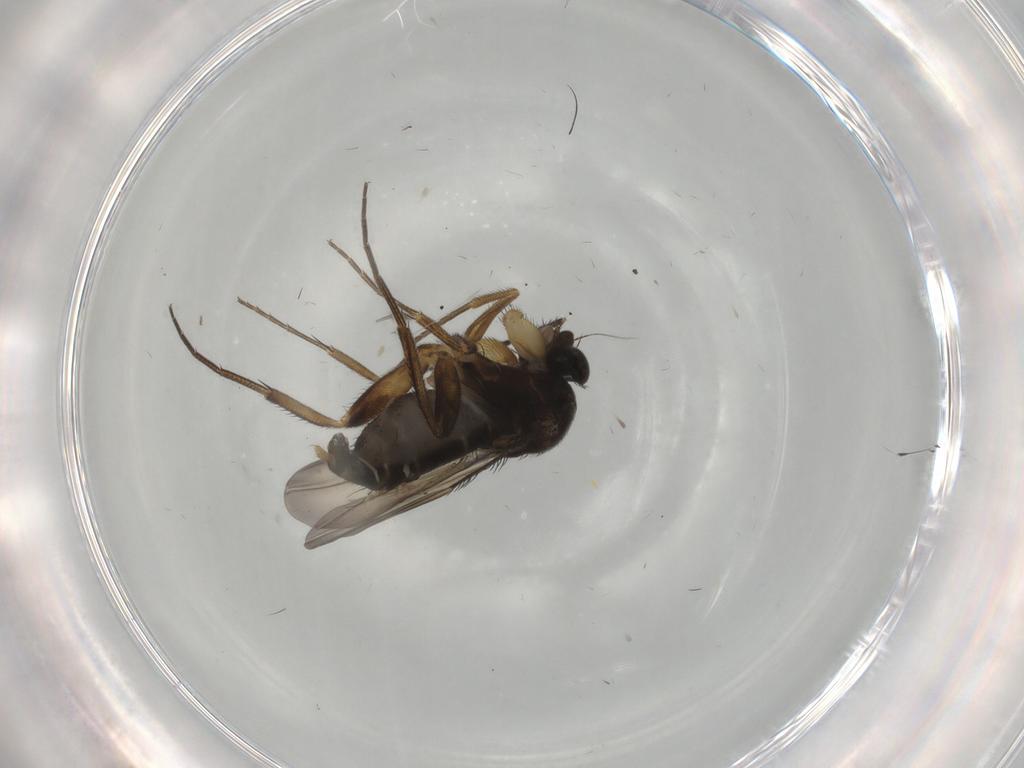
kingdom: Animalia
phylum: Arthropoda
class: Insecta
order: Diptera
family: Phoridae
